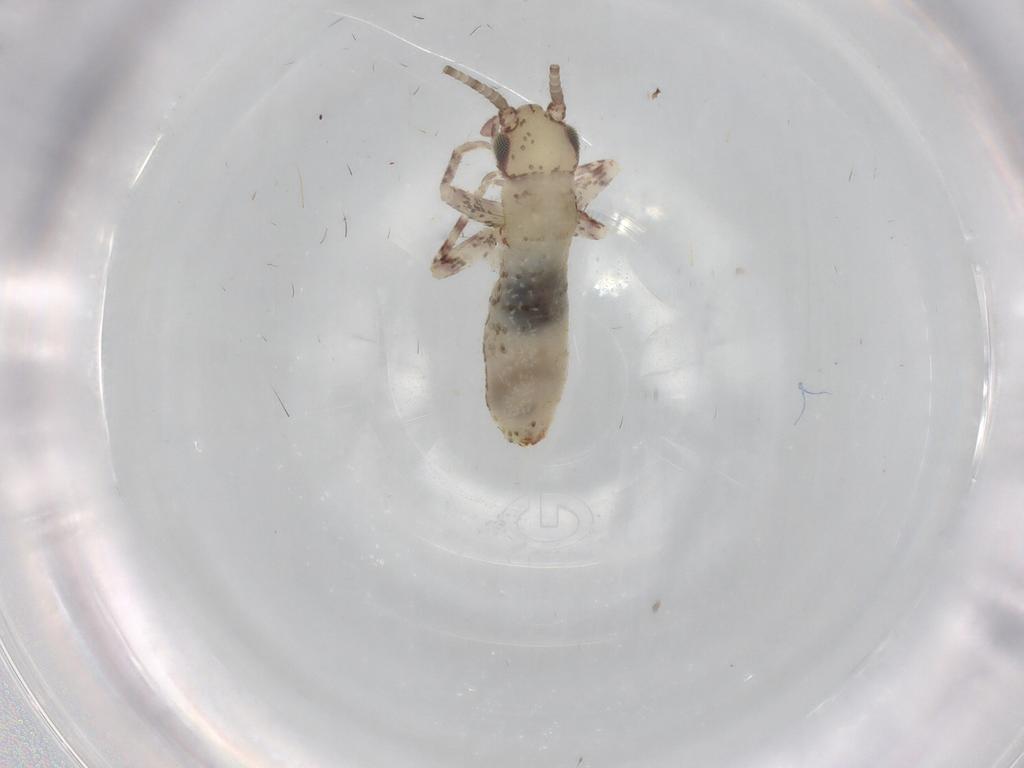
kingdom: Animalia
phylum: Arthropoda
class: Insecta
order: Orthoptera
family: Mogoplistidae
